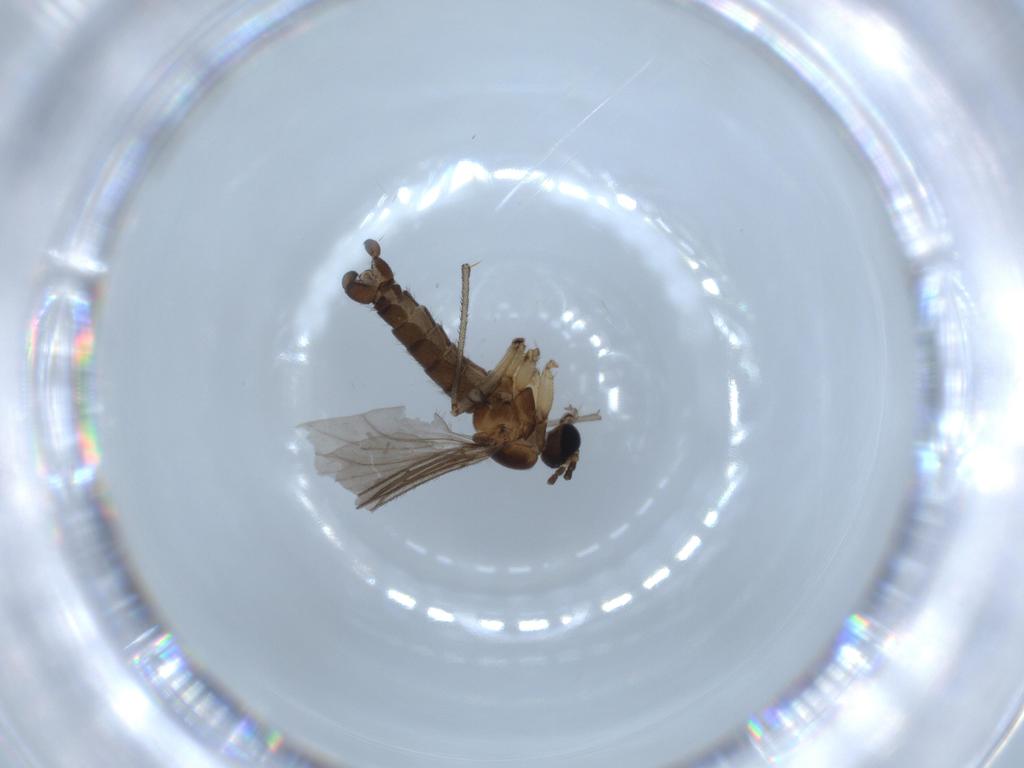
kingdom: Animalia
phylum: Arthropoda
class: Insecta
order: Diptera
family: Sciaridae
